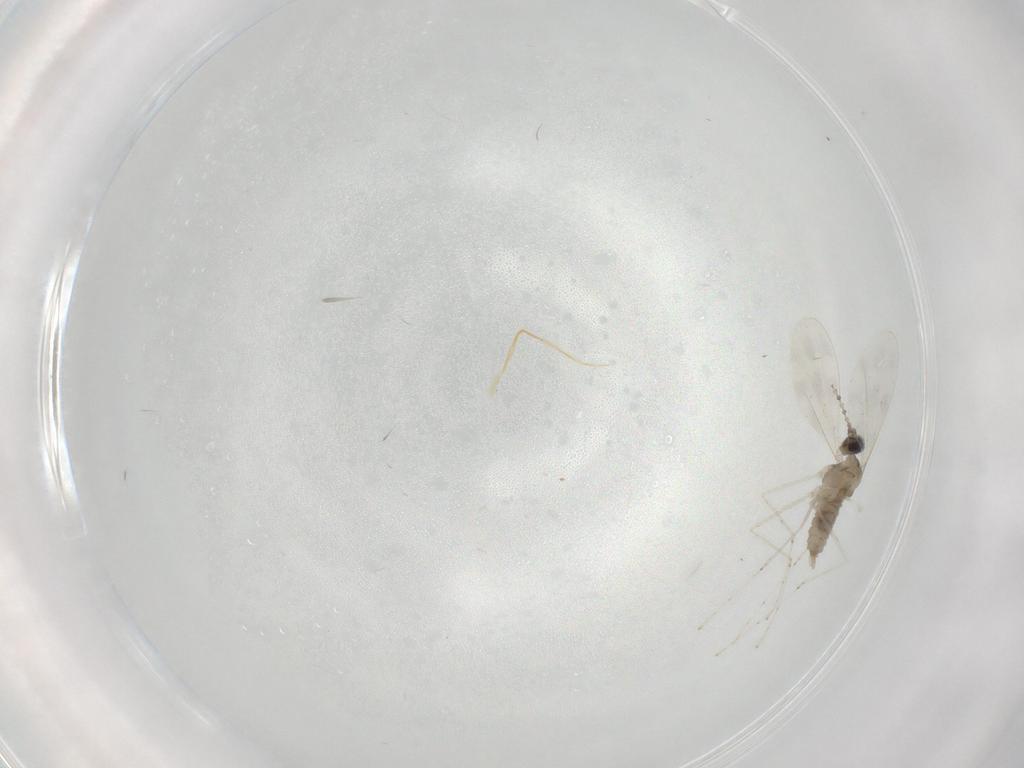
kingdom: Animalia
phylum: Arthropoda
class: Insecta
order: Diptera
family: Cecidomyiidae
